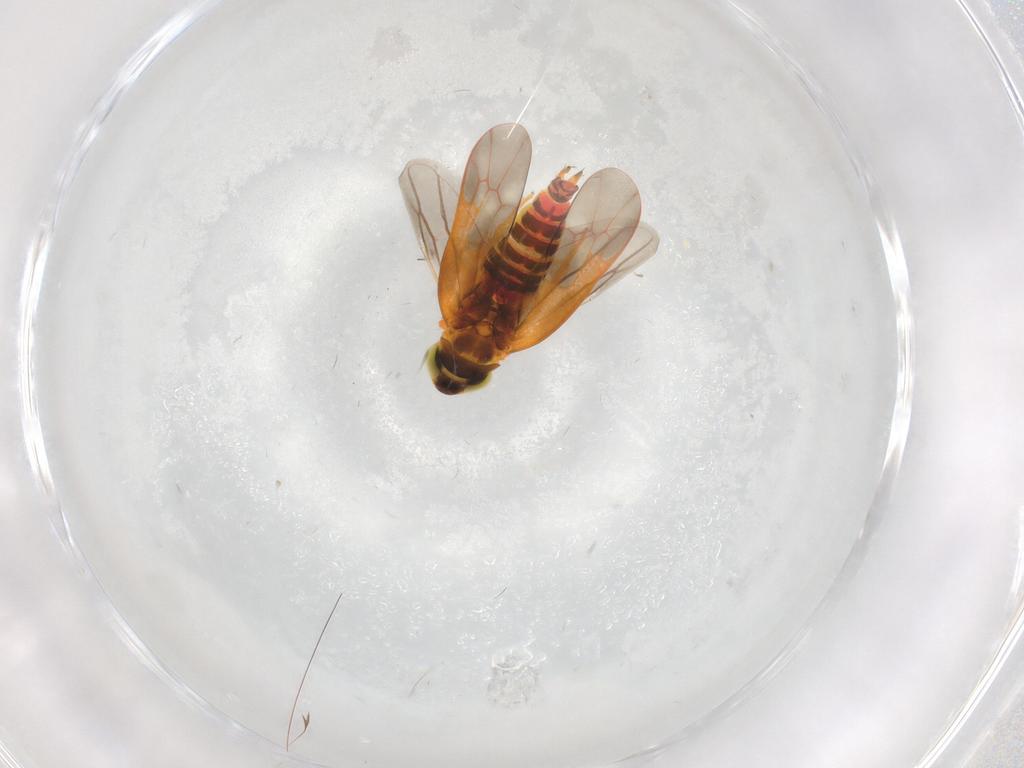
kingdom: Animalia
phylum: Arthropoda
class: Insecta
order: Hemiptera
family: Cicadellidae
